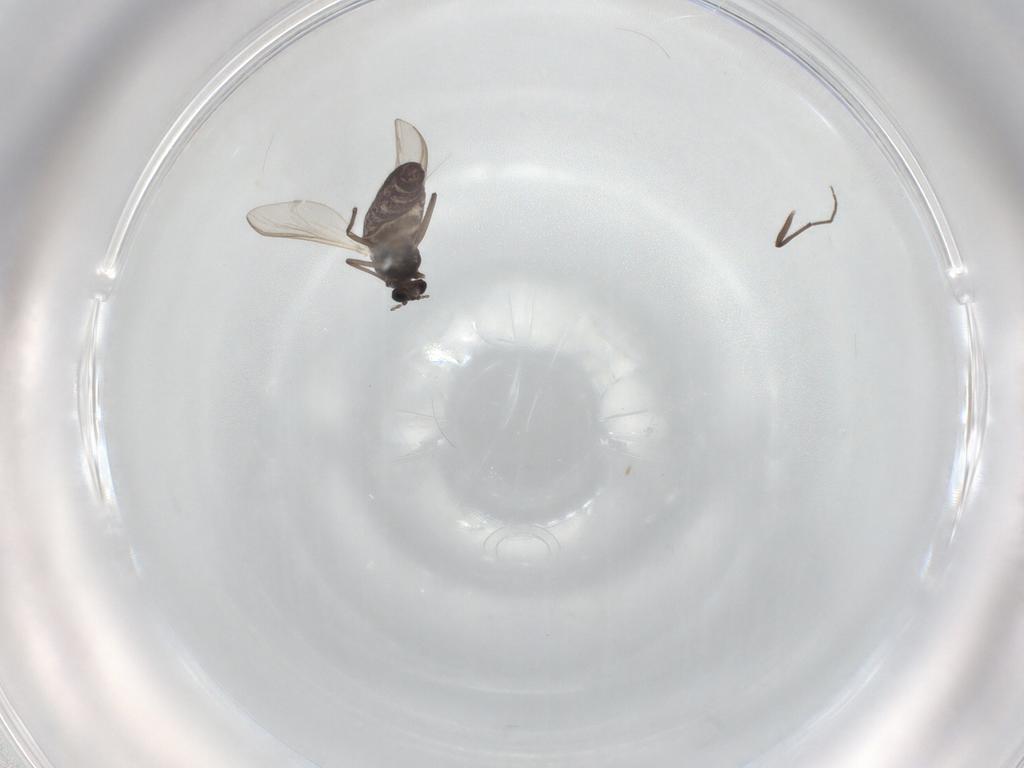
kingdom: Animalia
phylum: Arthropoda
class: Insecta
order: Diptera
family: Chironomidae
